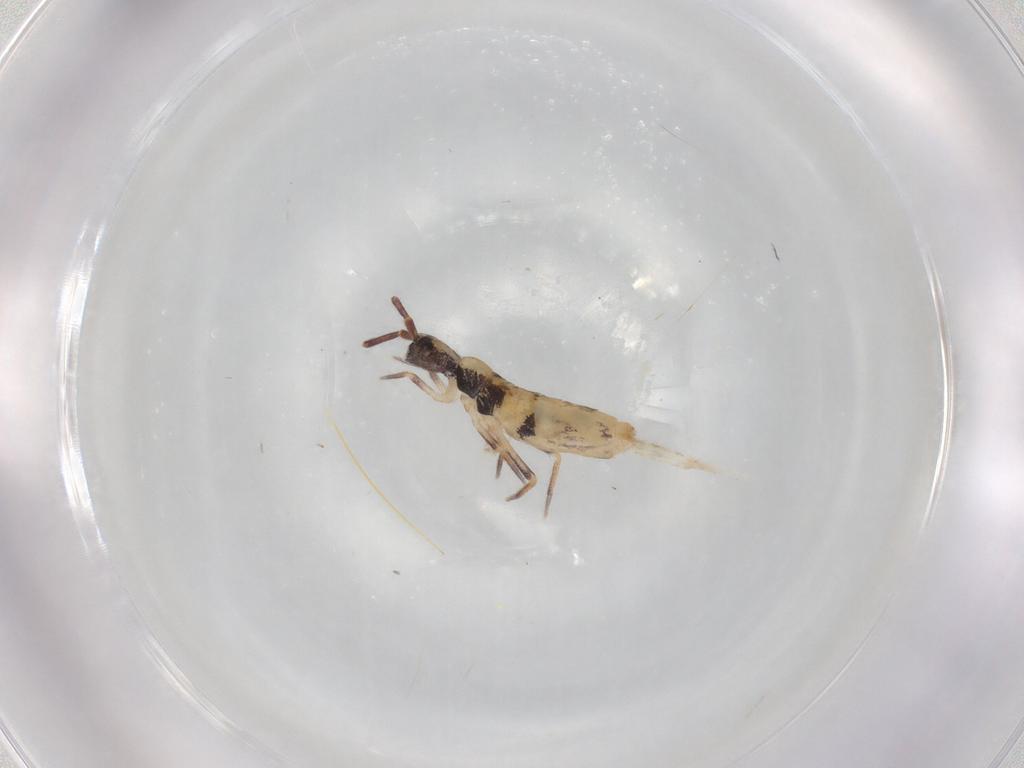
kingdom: Animalia
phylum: Arthropoda
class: Collembola
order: Entomobryomorpha
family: Entomobryidae
